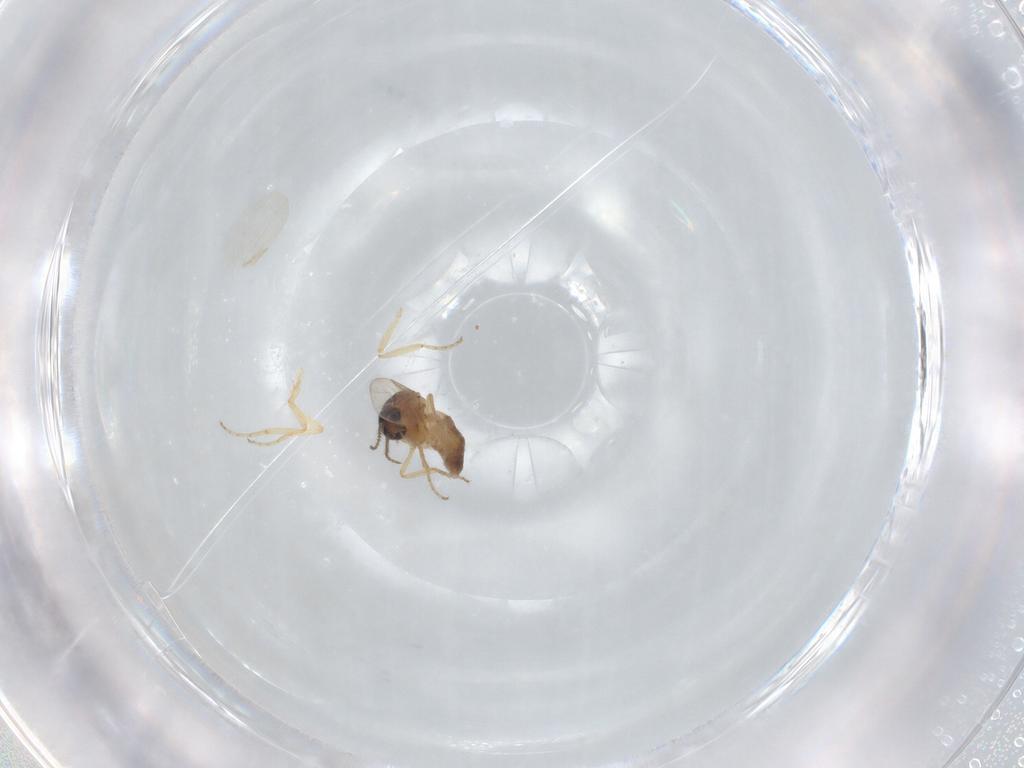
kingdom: Animalia
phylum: Arthropoda
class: Insecta
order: Diptera
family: Ceratopogonidae
